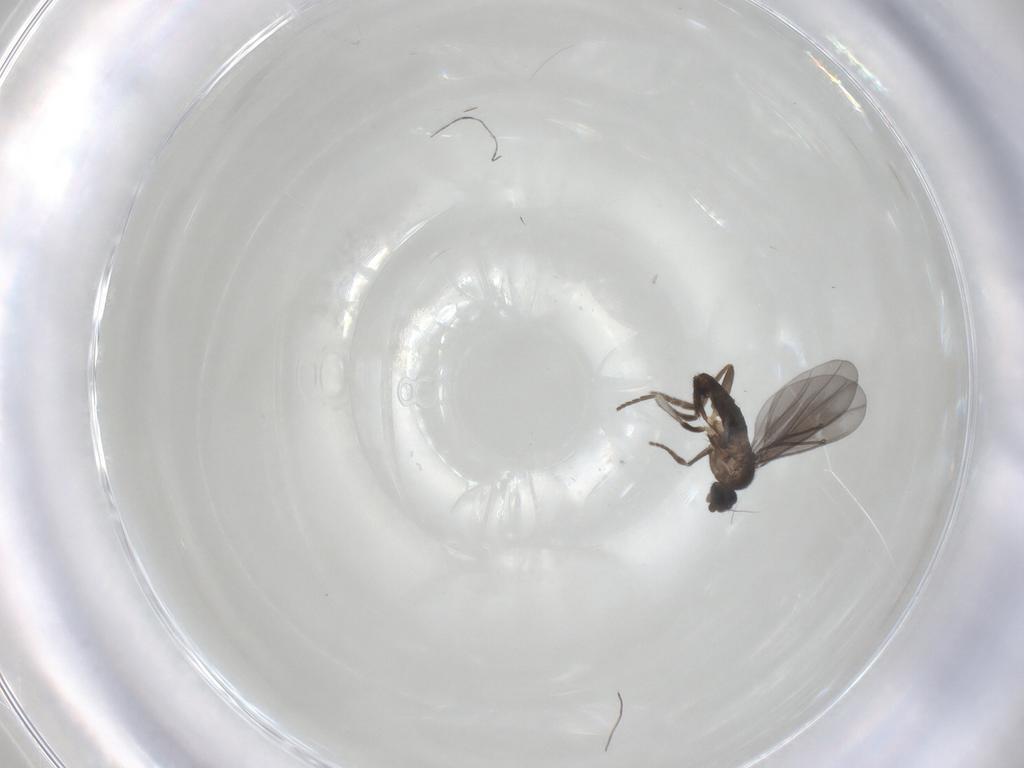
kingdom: Animalia
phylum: Arthropoda
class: Insecta
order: Diptera
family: Phoridae
